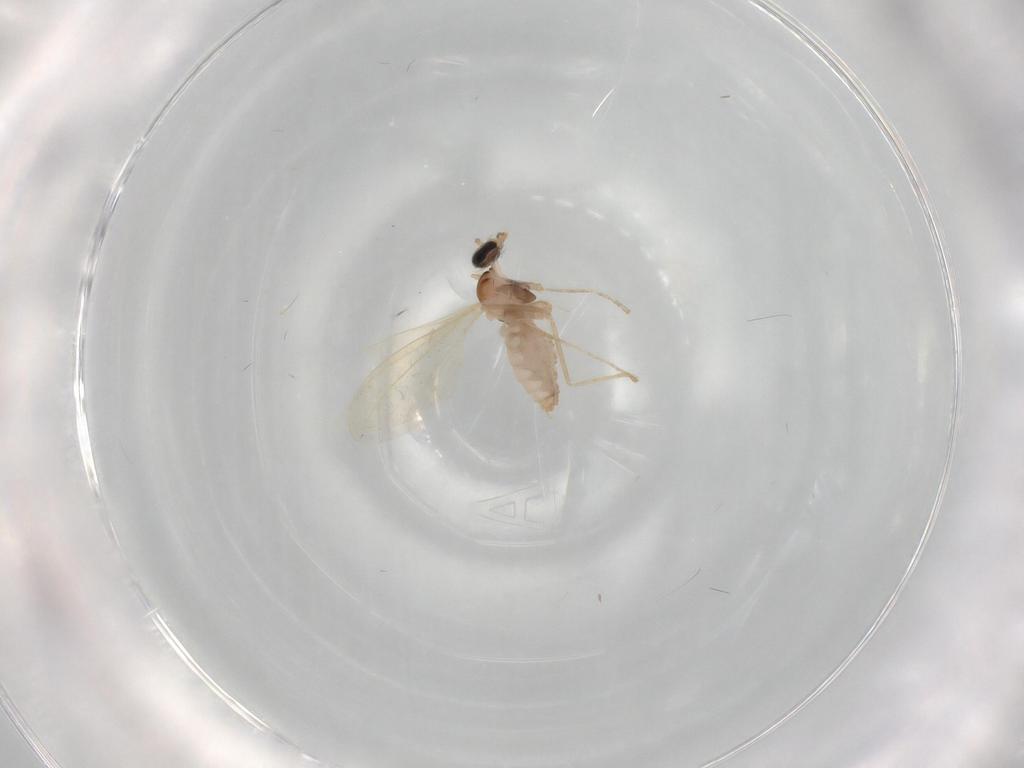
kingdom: Animalia
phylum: Arthropoda
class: Insecta
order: Diptera
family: Cecidomyiidae
